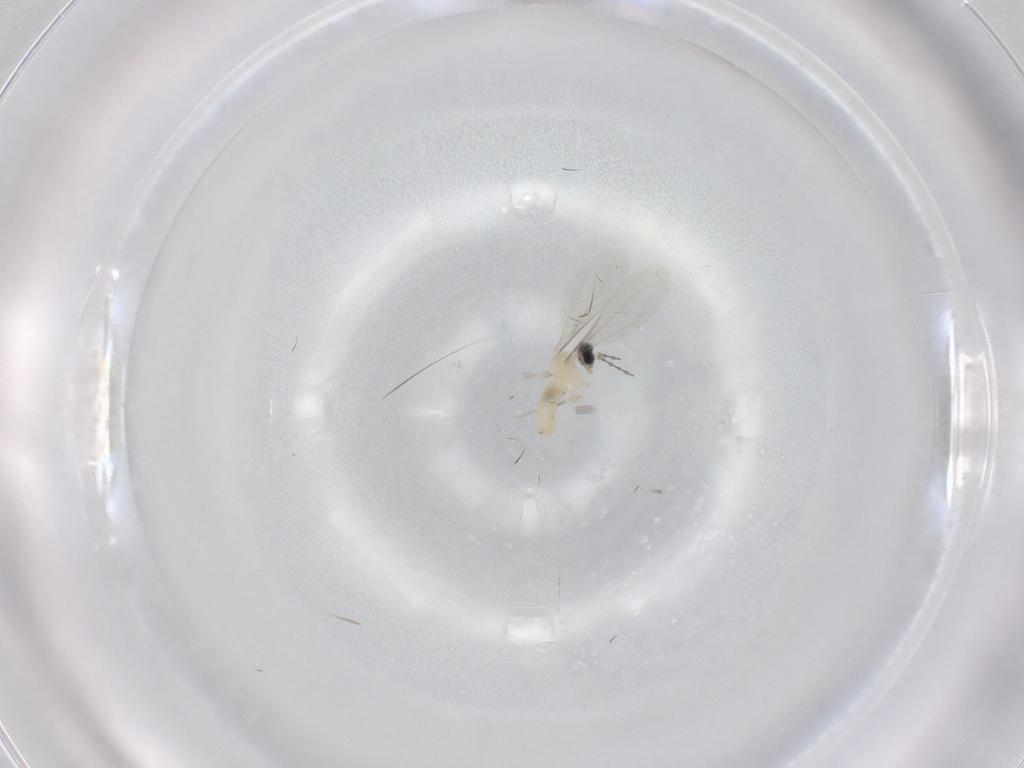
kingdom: Animalia
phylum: Arthropoda
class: Insecta
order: Diptera
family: Cecidomyiidae
